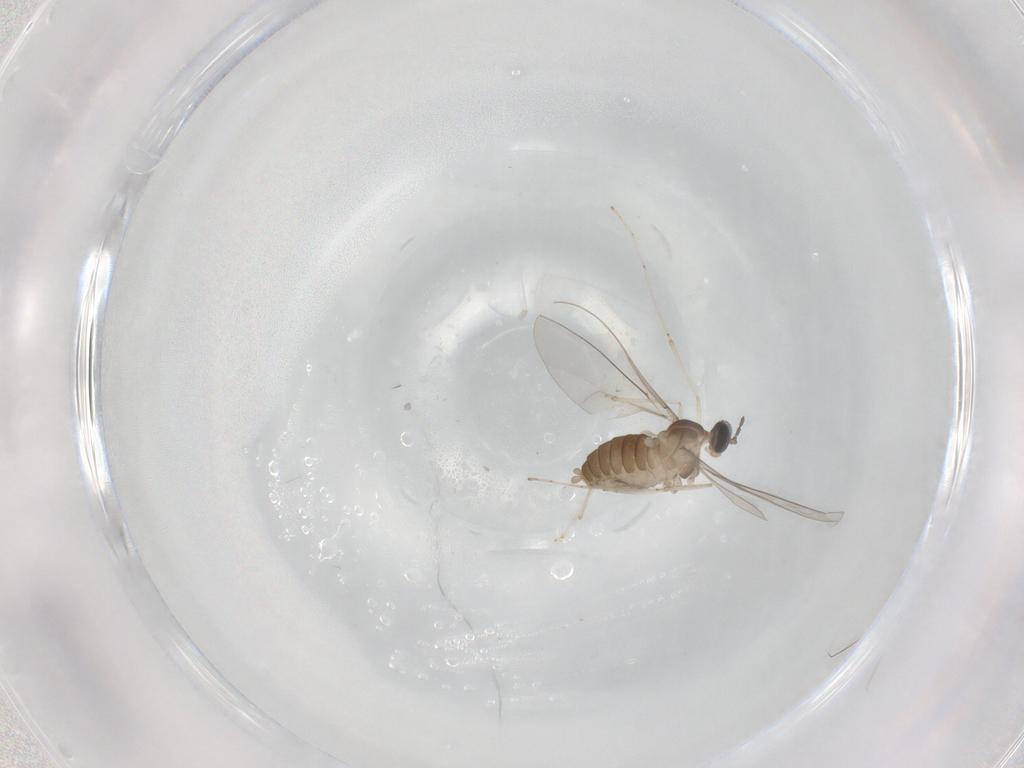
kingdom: Animalia
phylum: Arthropoda
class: Insecta
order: Diptera
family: Cecidomyiidae
